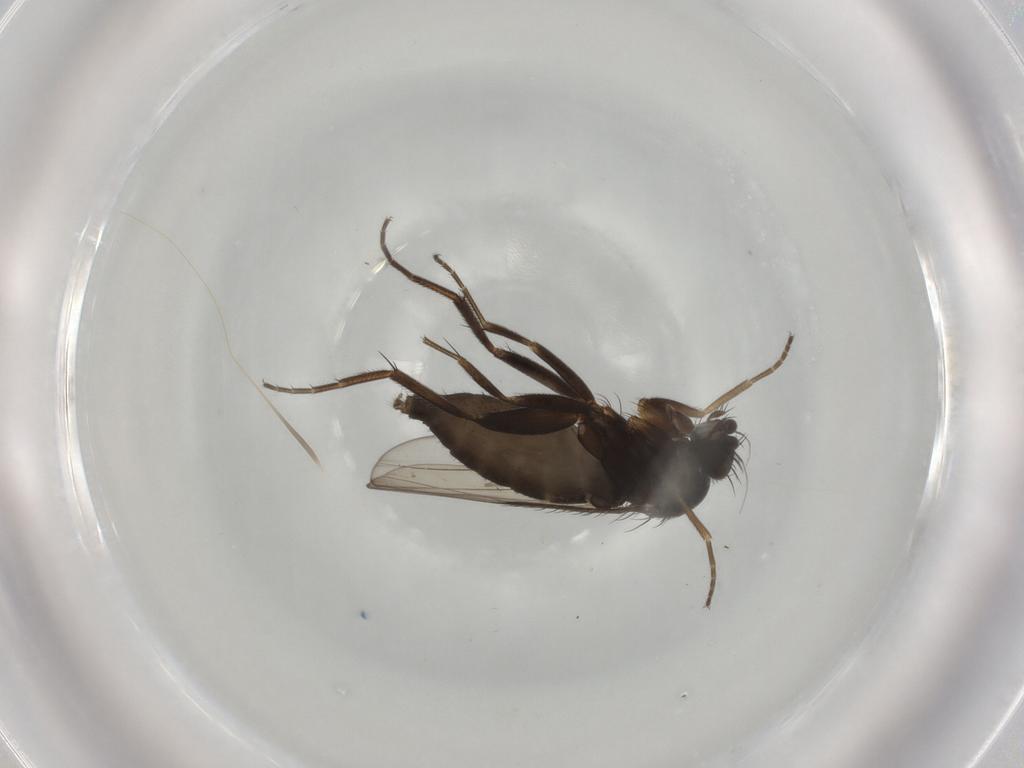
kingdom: Animalia
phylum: Arthropoda
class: Insecta
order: Diptera
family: Phoridae
